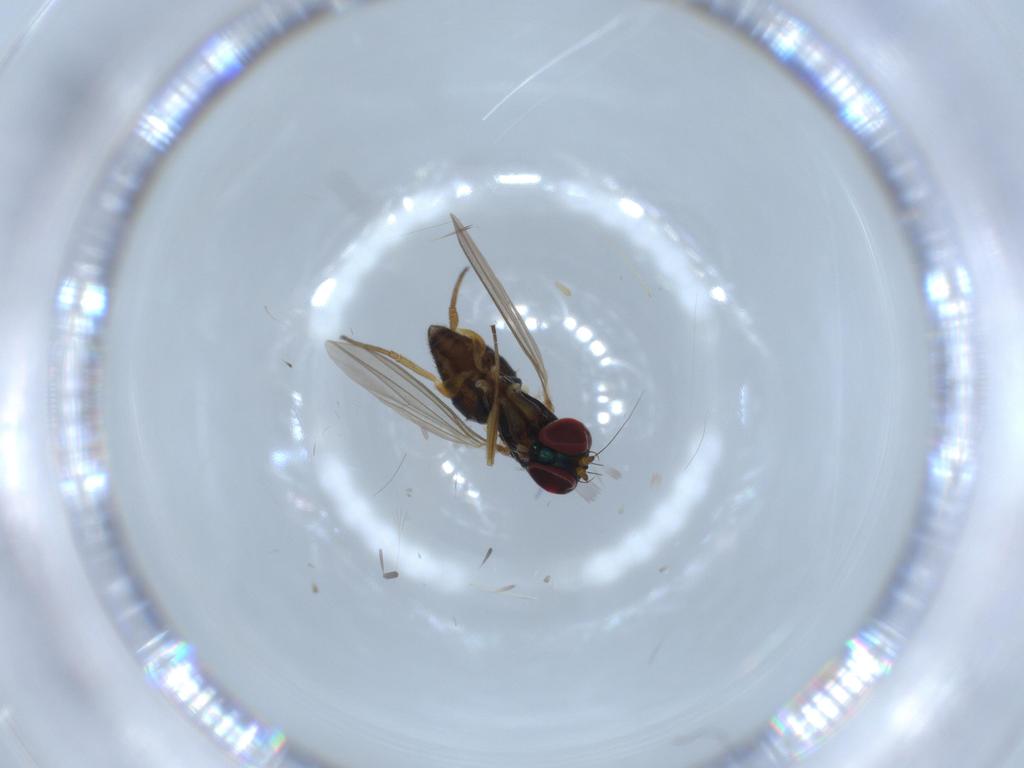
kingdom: Animalia
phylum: Arthropoda
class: Insecta
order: Diptera
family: Dolichopodidae
